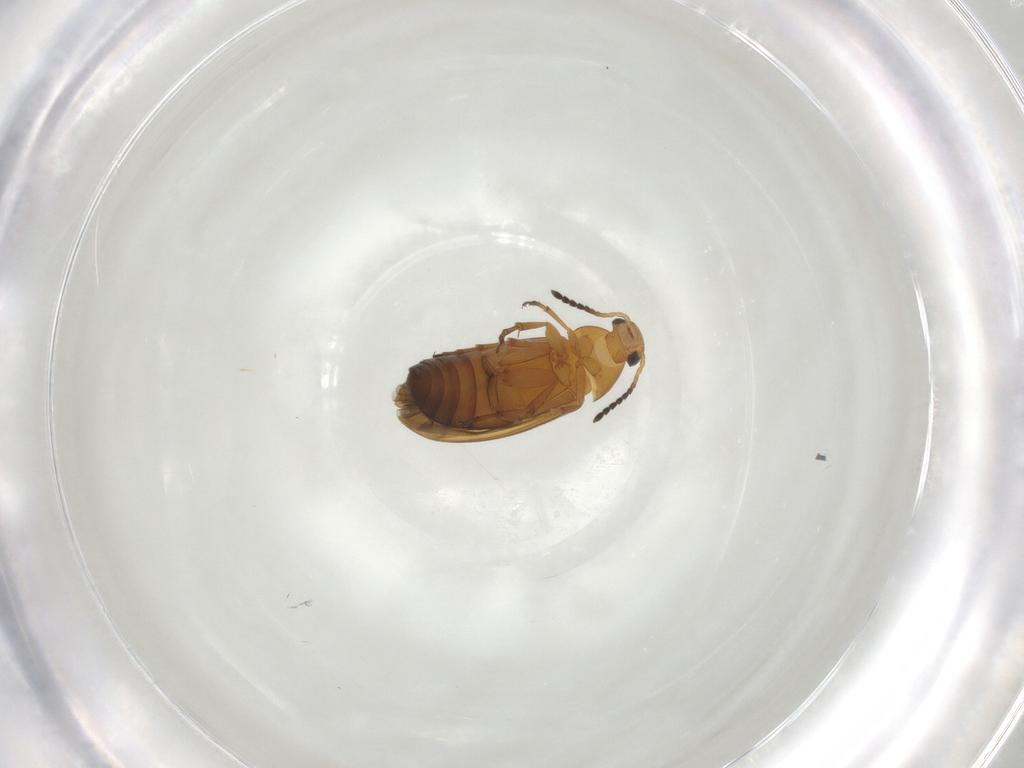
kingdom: Animalia
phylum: Arthropoda
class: Insecta
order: Coleoptera
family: Scraptiidae
